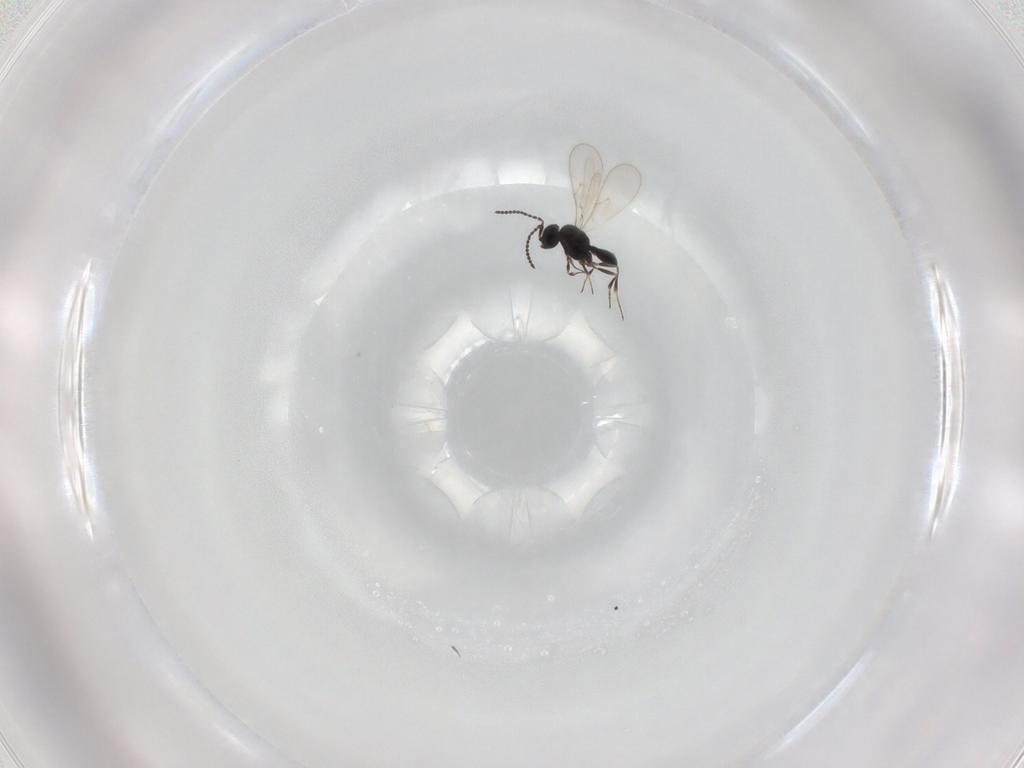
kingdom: Animalia
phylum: Arthropoda
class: Insecta
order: Hymenoptera
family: Scelionidae
